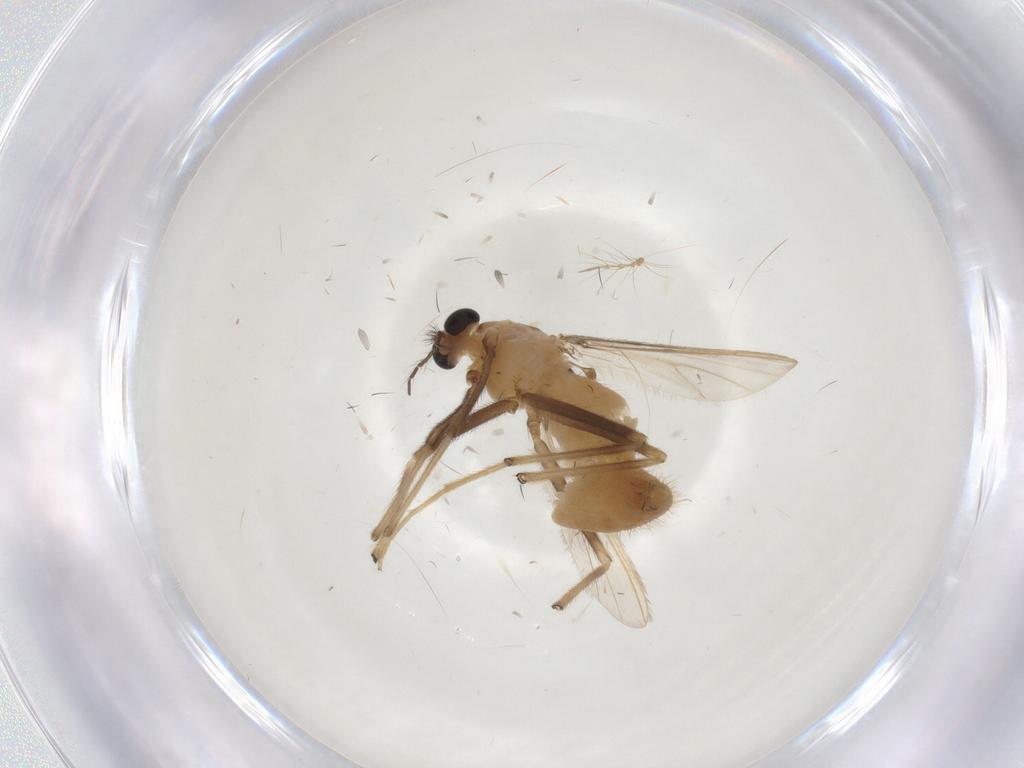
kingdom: Animalia
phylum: Arthropoda
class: Insecta
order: Diptera
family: Chironomidae
